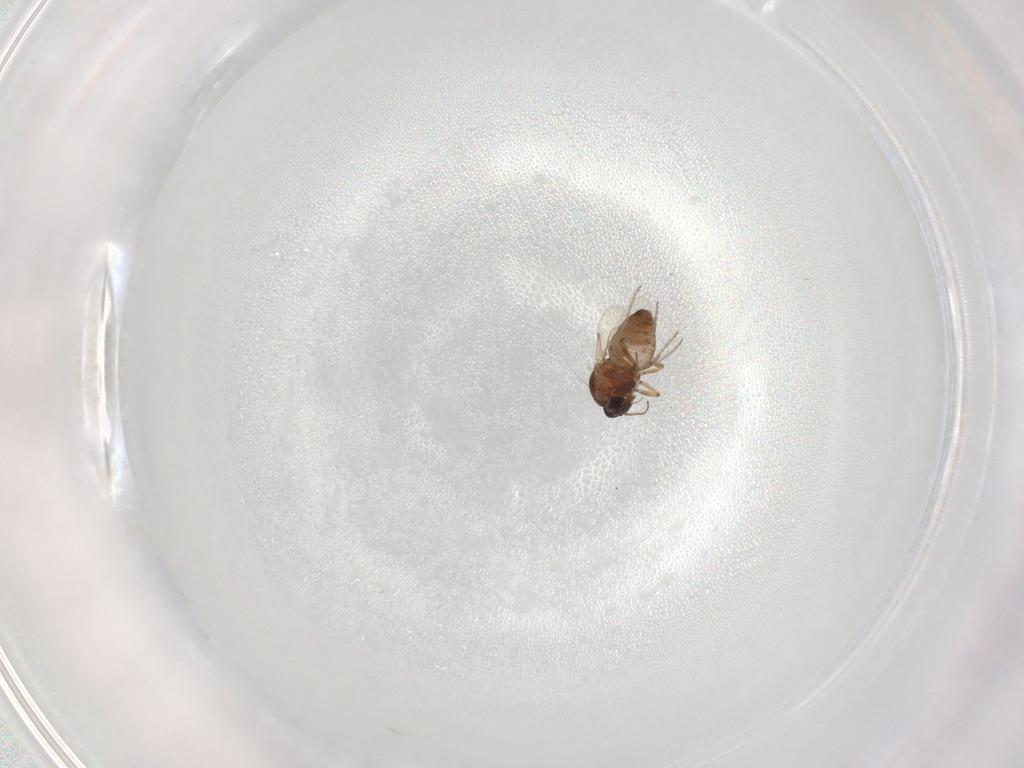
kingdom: Animalia
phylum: Arthropoda
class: Insecta
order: Diptera
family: Ceratopogonidae
